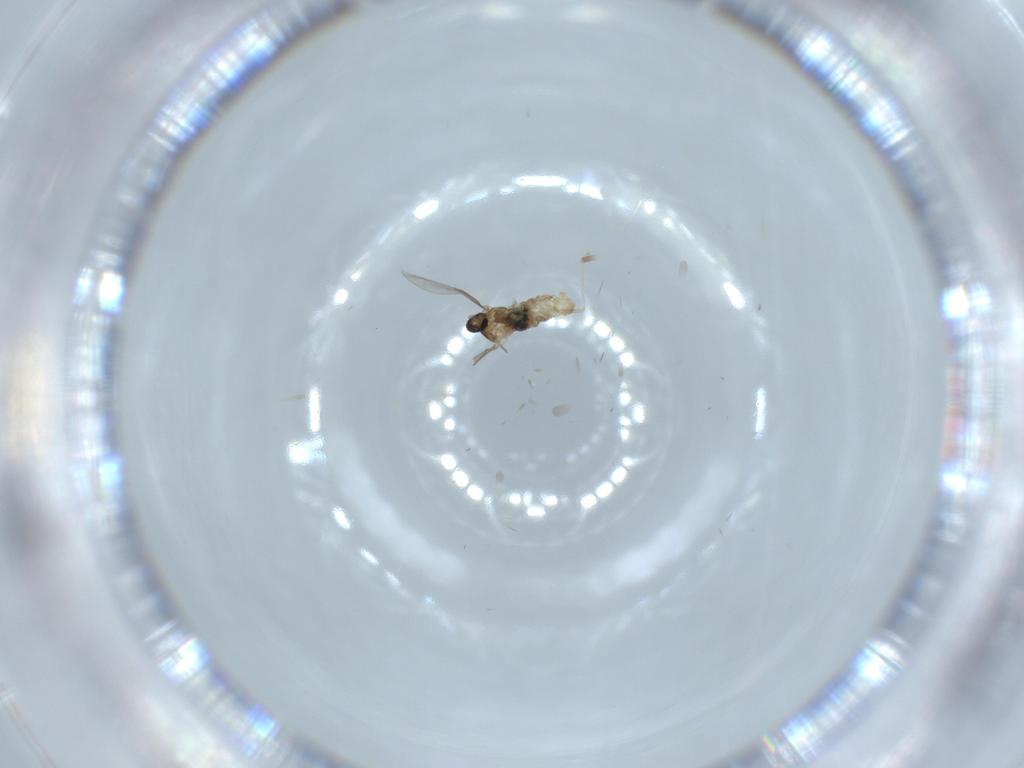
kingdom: Animalia
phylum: Arthropoda
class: Insecta
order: Diptera
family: Cecidomyiidae
